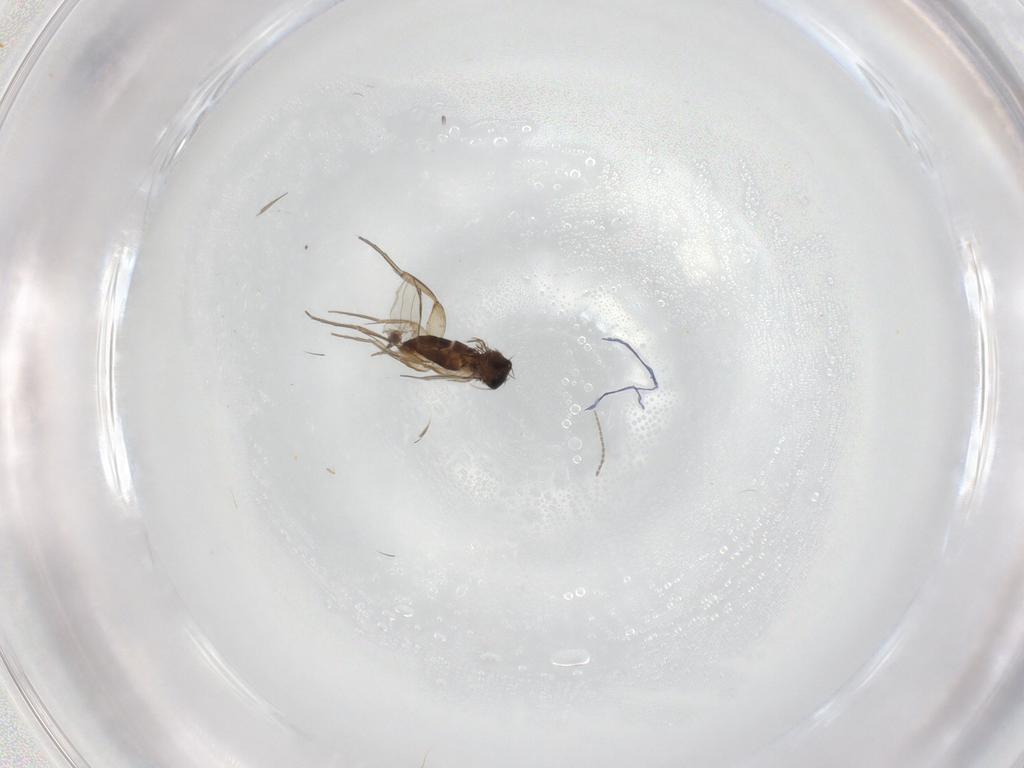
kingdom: Animalia
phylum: Arthropoda
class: Insecta
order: Diptera
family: Phoridae
